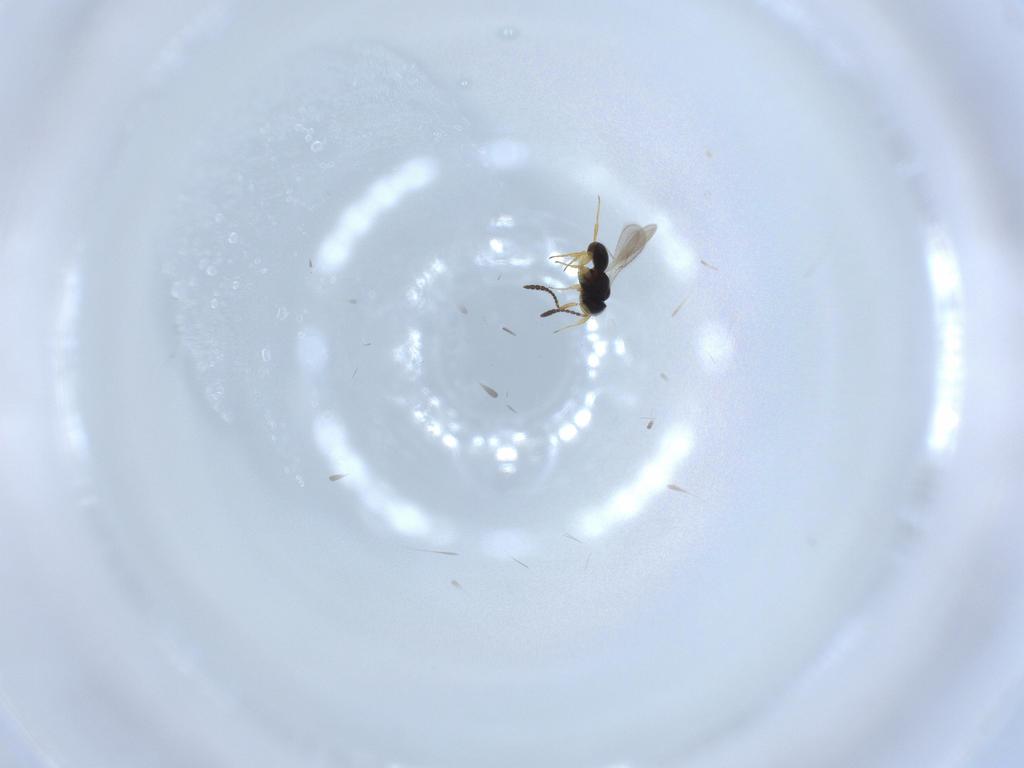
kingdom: Animalia
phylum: Arthropoda
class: Insecta
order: Hymenoptera
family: Scelionidae
